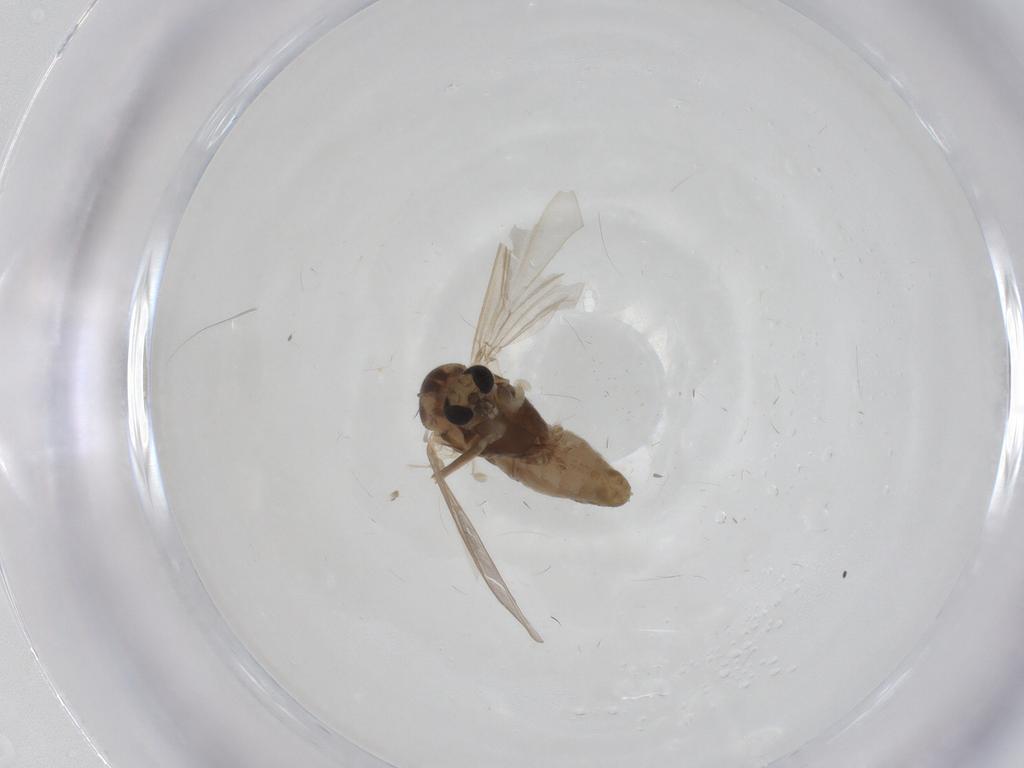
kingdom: Animalia
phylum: Arthropoda
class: Insecta
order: Diptera
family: Chironomidae
